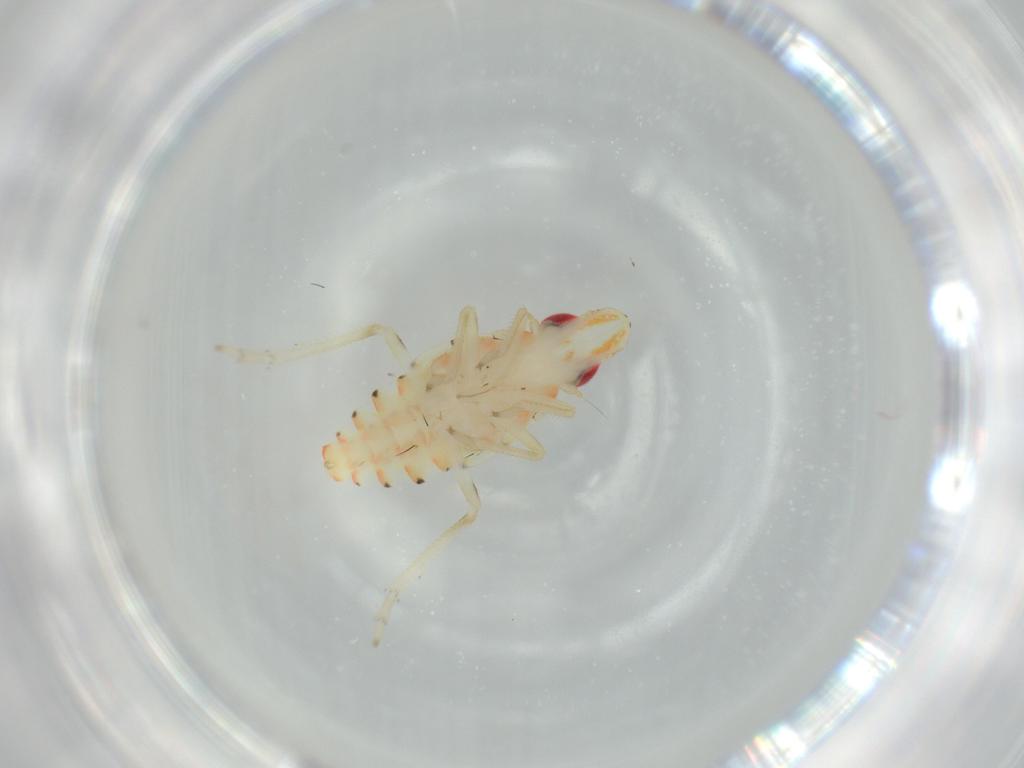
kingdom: Animalia
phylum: Arthropoda
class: Insecta
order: Hemiptera
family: Tropiduchidae
